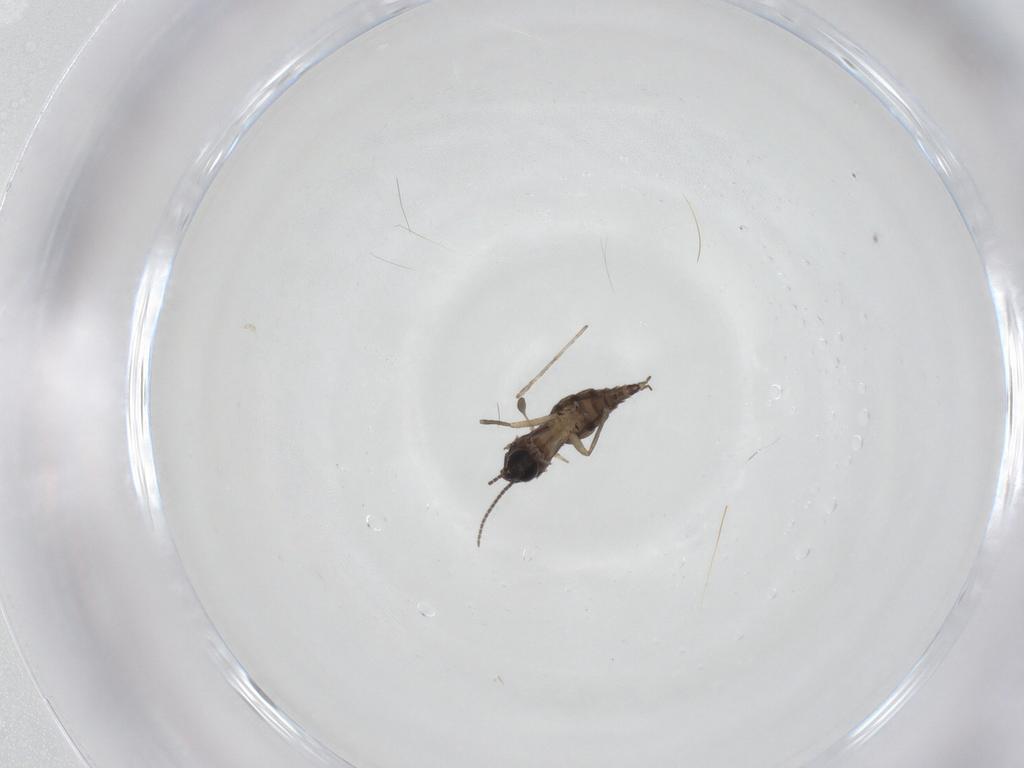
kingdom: Animalia
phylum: Arthropoda
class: Insecta
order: Diptera
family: Sciaridae
